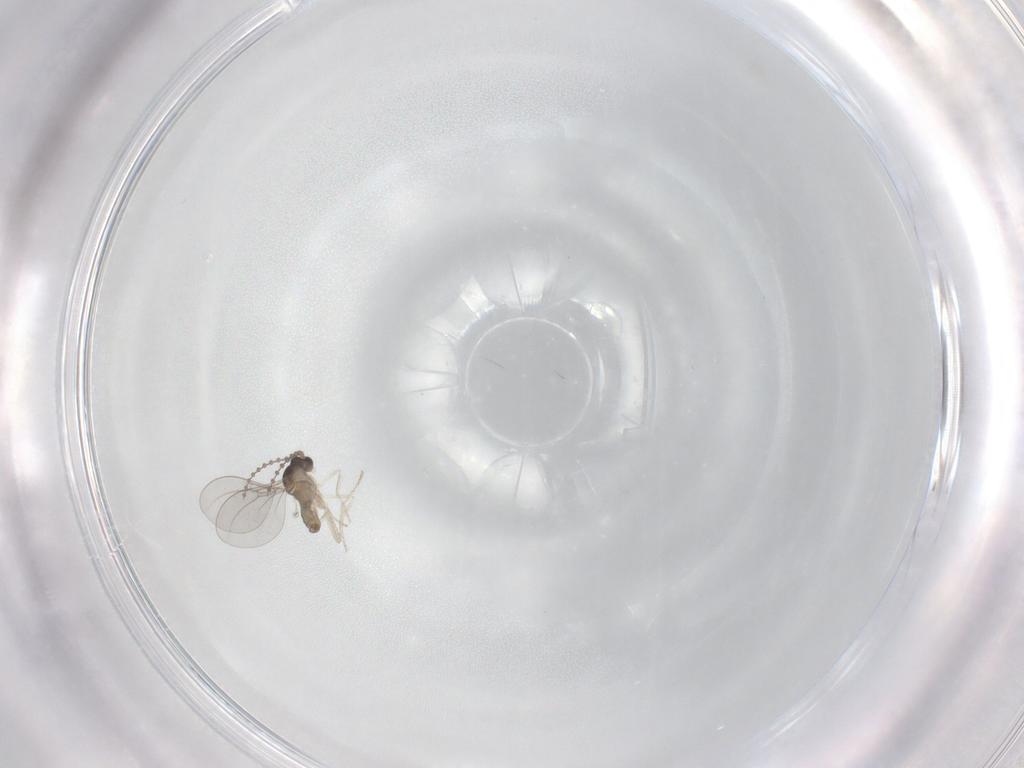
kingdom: Animalia
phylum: Arthropoda
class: Insecta
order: Diptera
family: Cecidomyiidae
